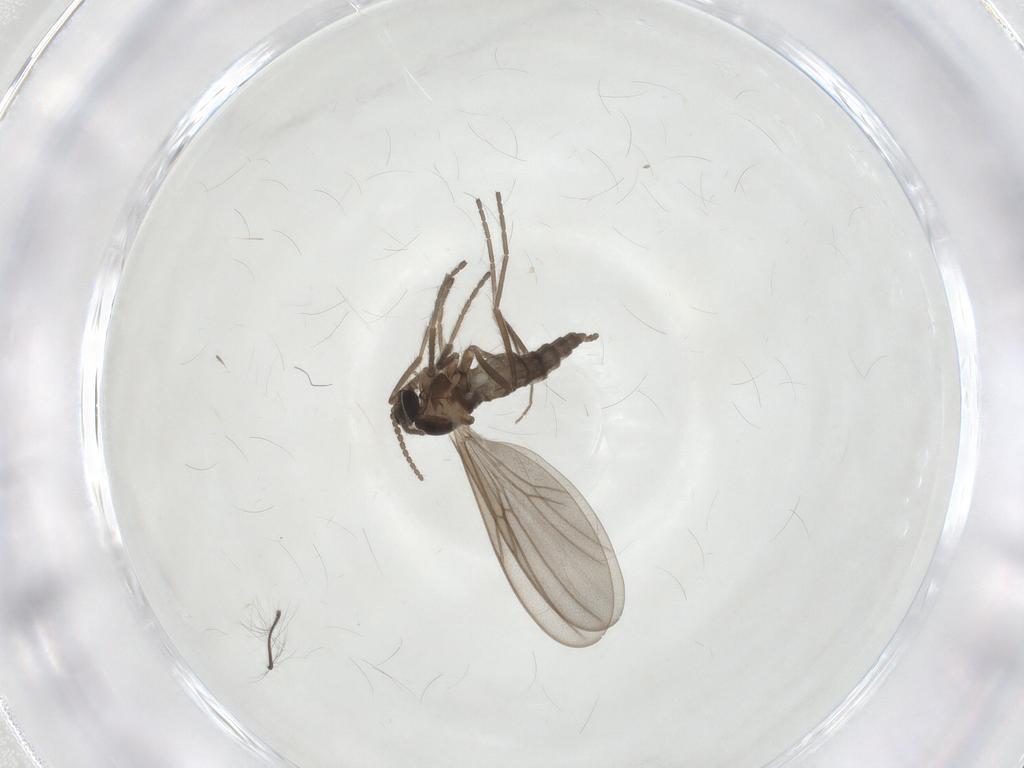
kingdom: Animalia
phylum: Arthropoda
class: Insecta
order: Diptera
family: Cecidomyiidae
